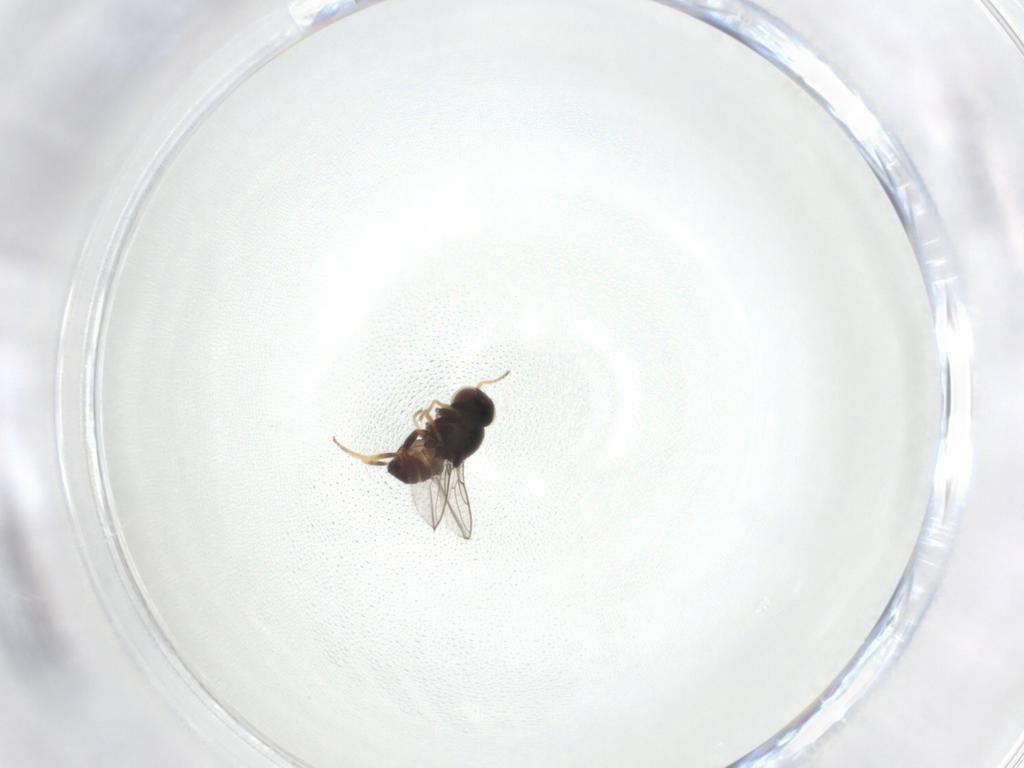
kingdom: Animalia
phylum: Arthropoda
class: Insecta
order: Diptera
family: Chloropidae
